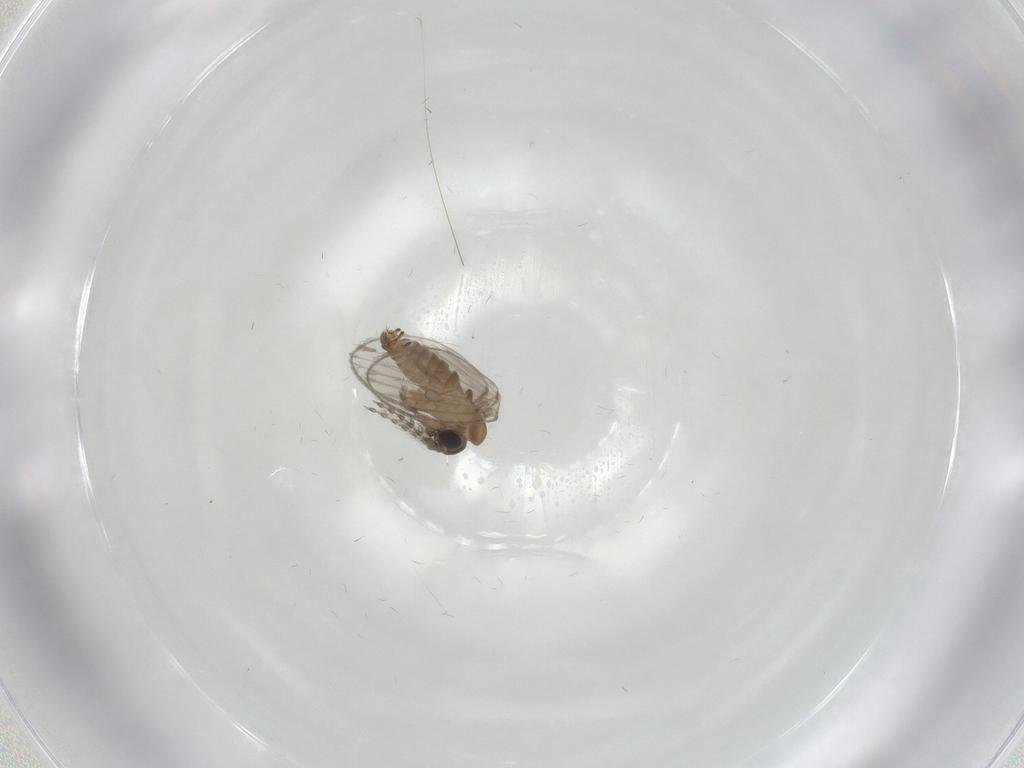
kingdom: Animalia
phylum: Arthropoda
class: Insecta
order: Diptera
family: Psychodidae
